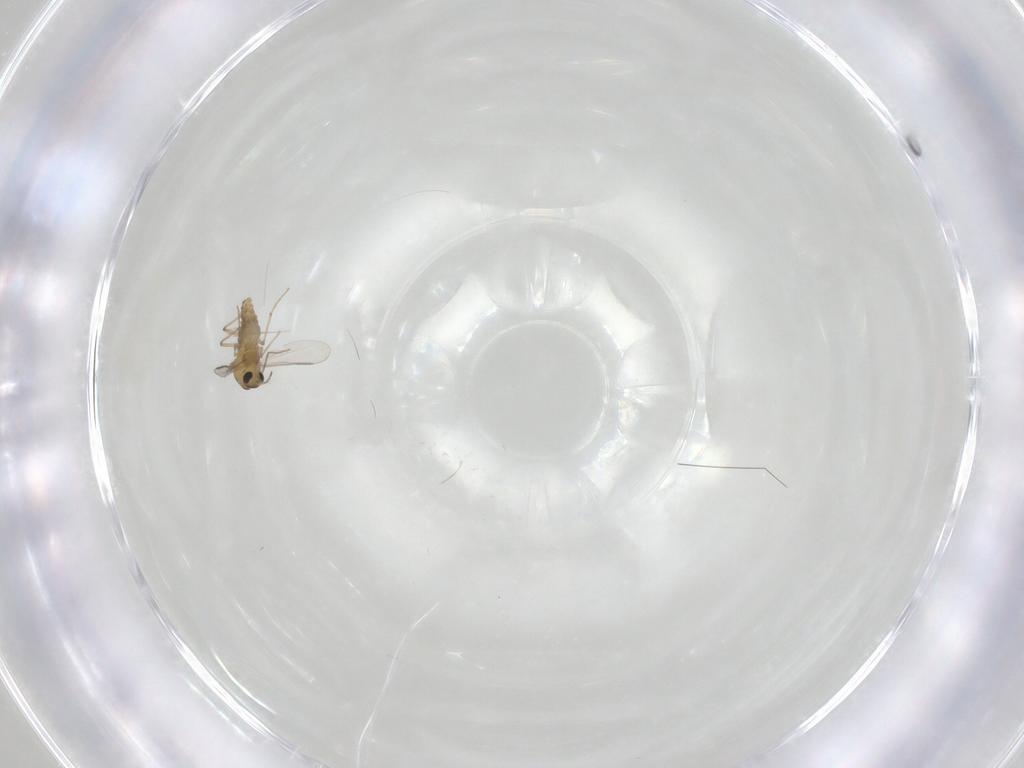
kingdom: Animalia
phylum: Arthropoda
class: Insecta
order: Diptera
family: Chironomidae
